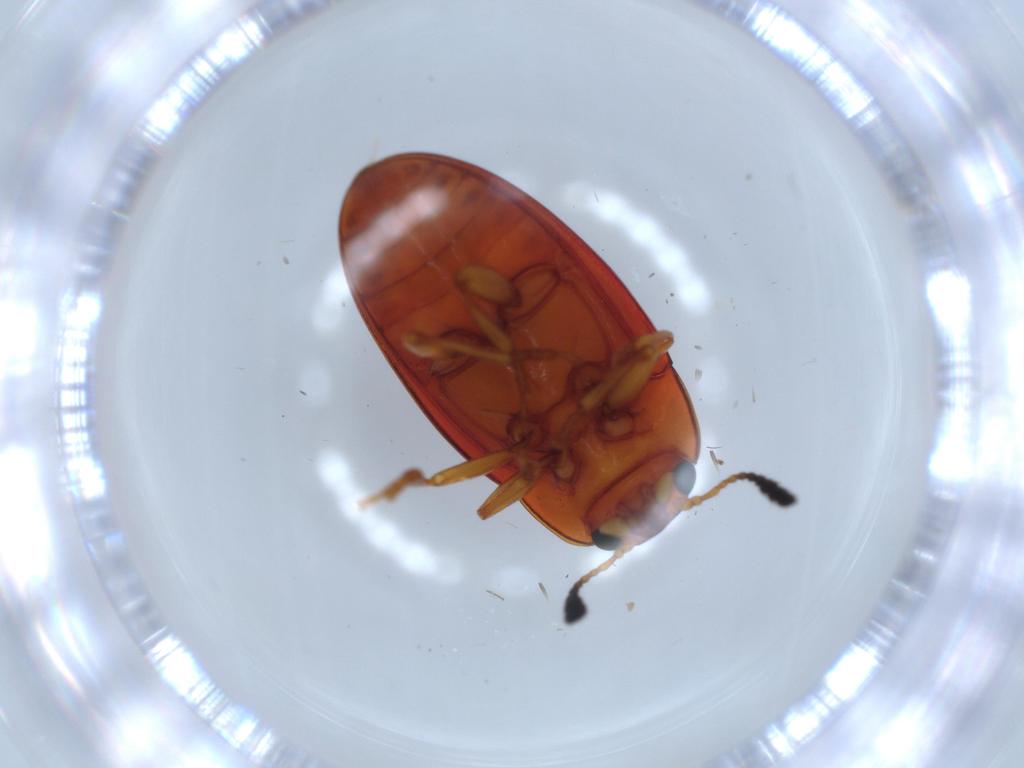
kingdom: Animalia
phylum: Arthropoda
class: Insecta
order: Coleoptera
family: Erotylidae
